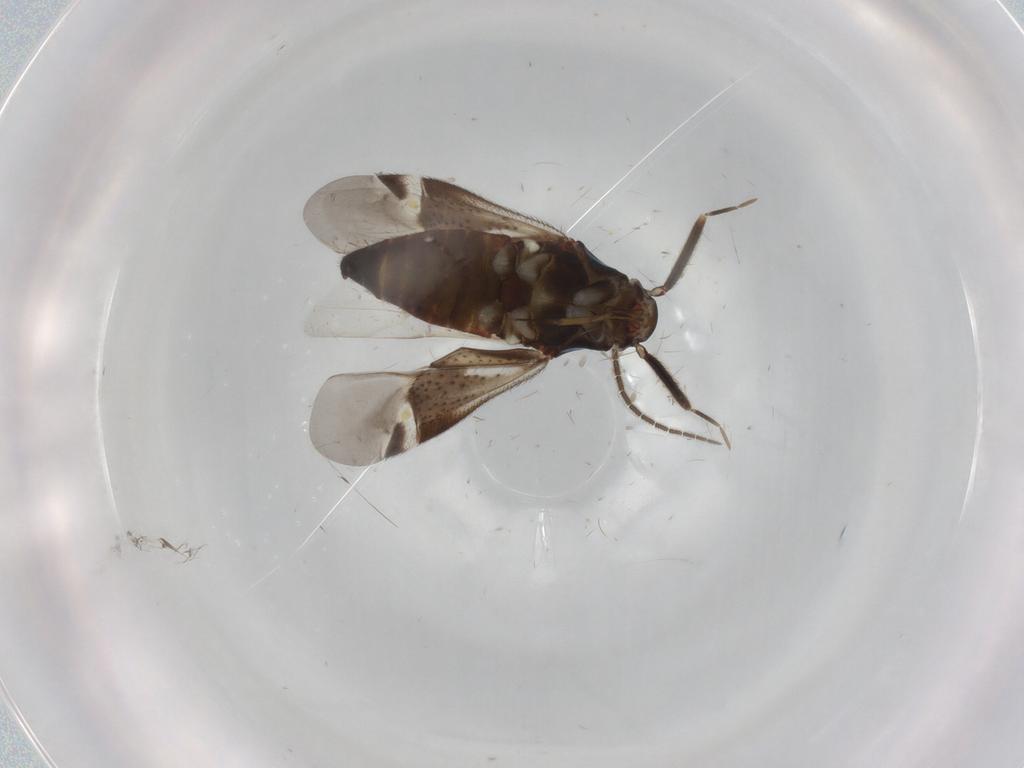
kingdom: Animalia
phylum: Arthropoda
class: Insecta
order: Hemiptera
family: Miridae
